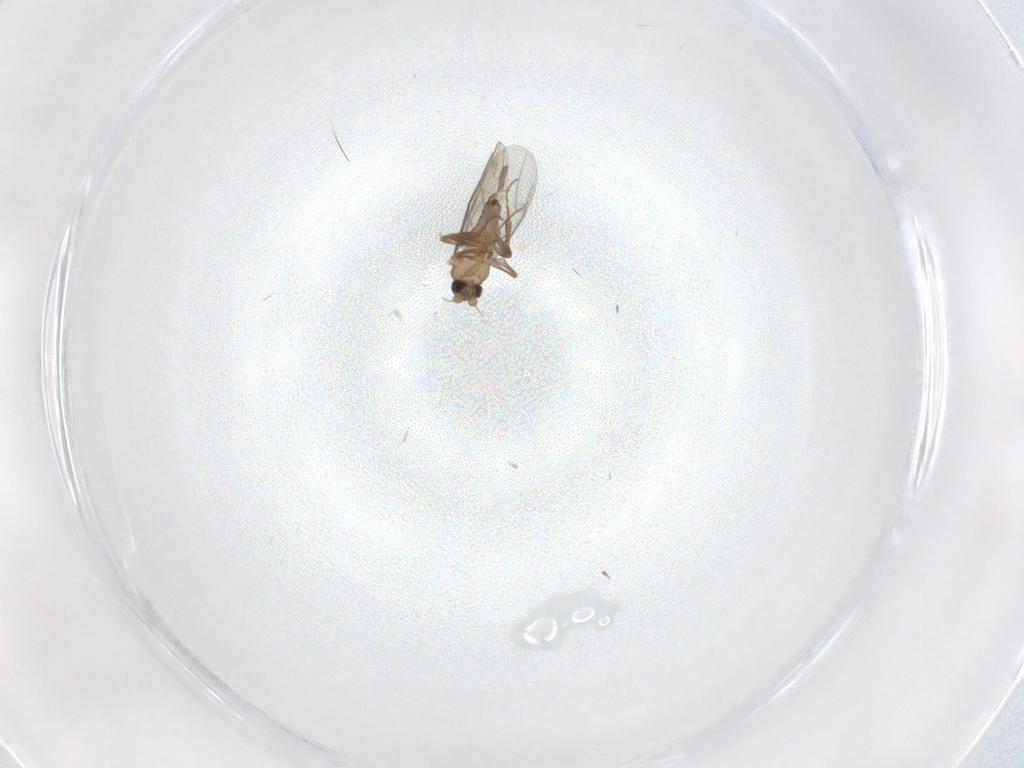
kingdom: Animalia
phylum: Arthropoda
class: Insecta
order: Diptera
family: Phoridae
